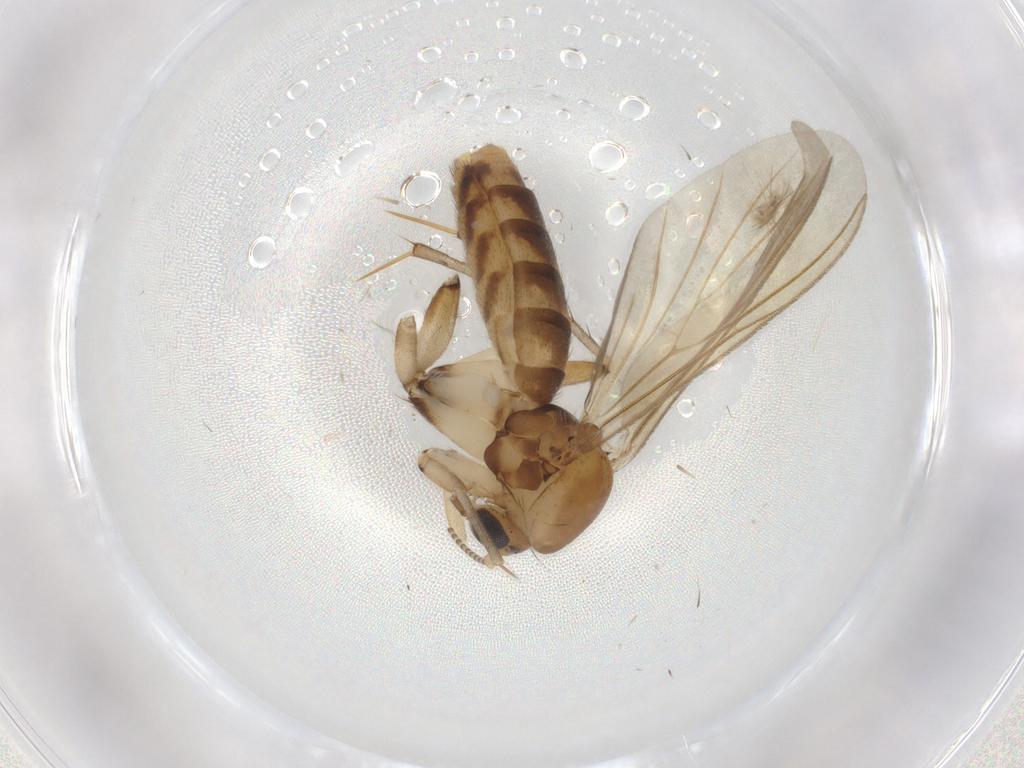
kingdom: Animalia
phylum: Arthropoda
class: Insecta
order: Diptera
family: Mycetophilidae
